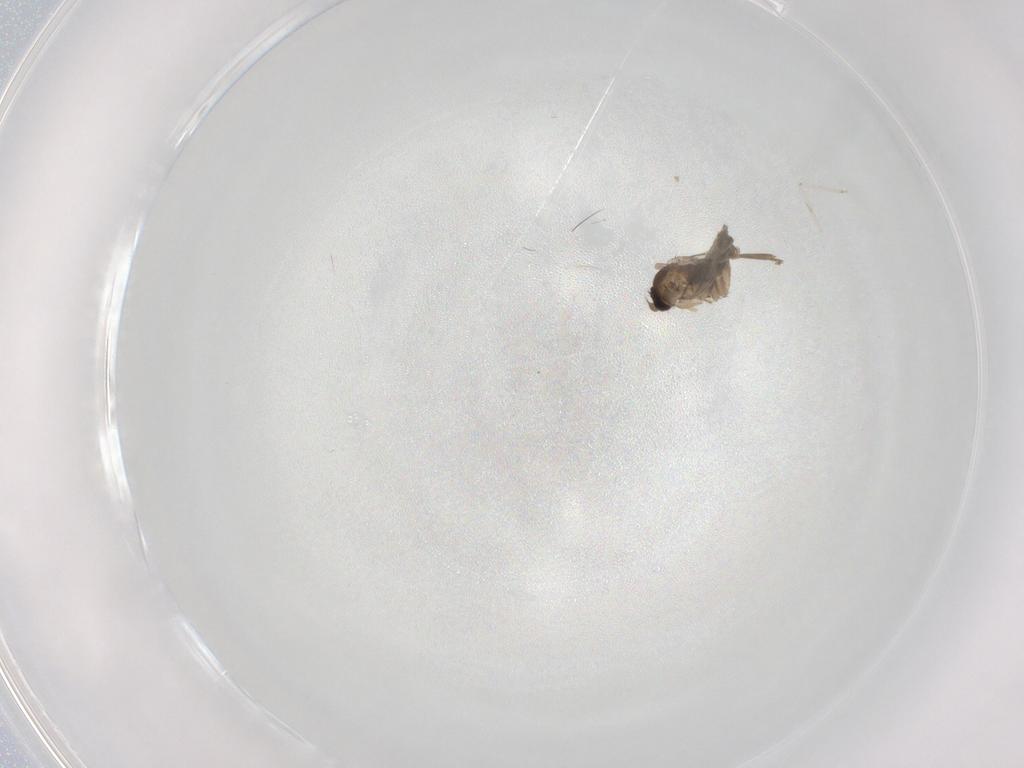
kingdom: Animalia
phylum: Arthropoda
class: Insecta
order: Diptera
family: Phoridae
